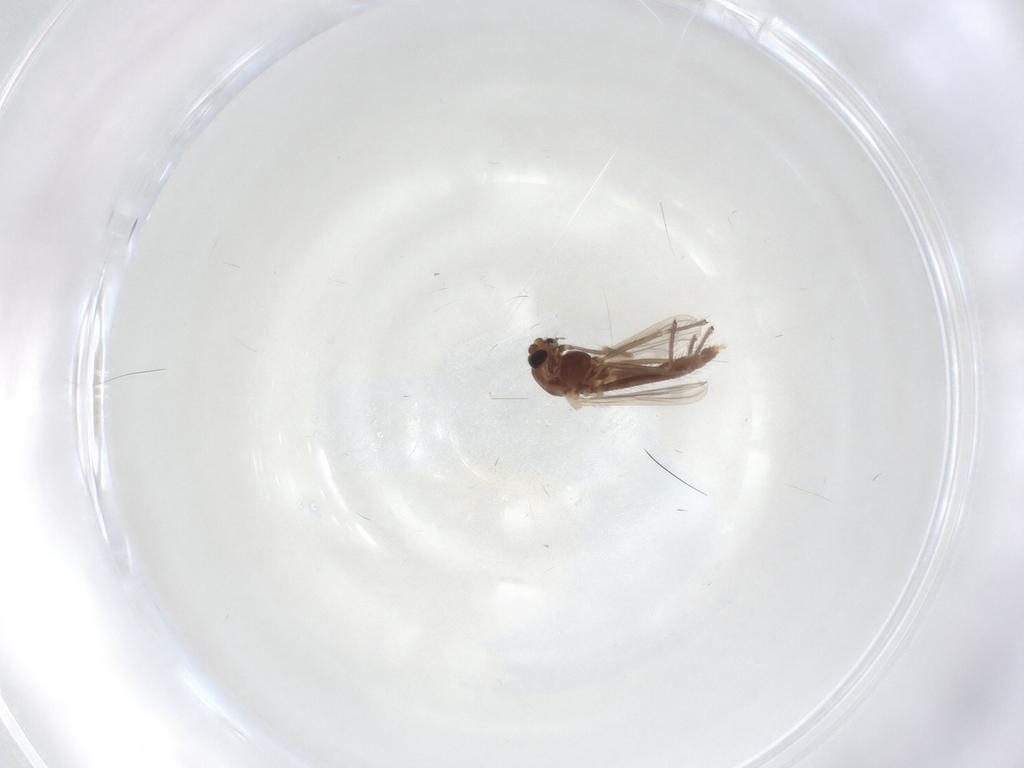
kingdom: Animalia
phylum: Arthropoda
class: Insecta
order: Diptera
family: Chironomidae
